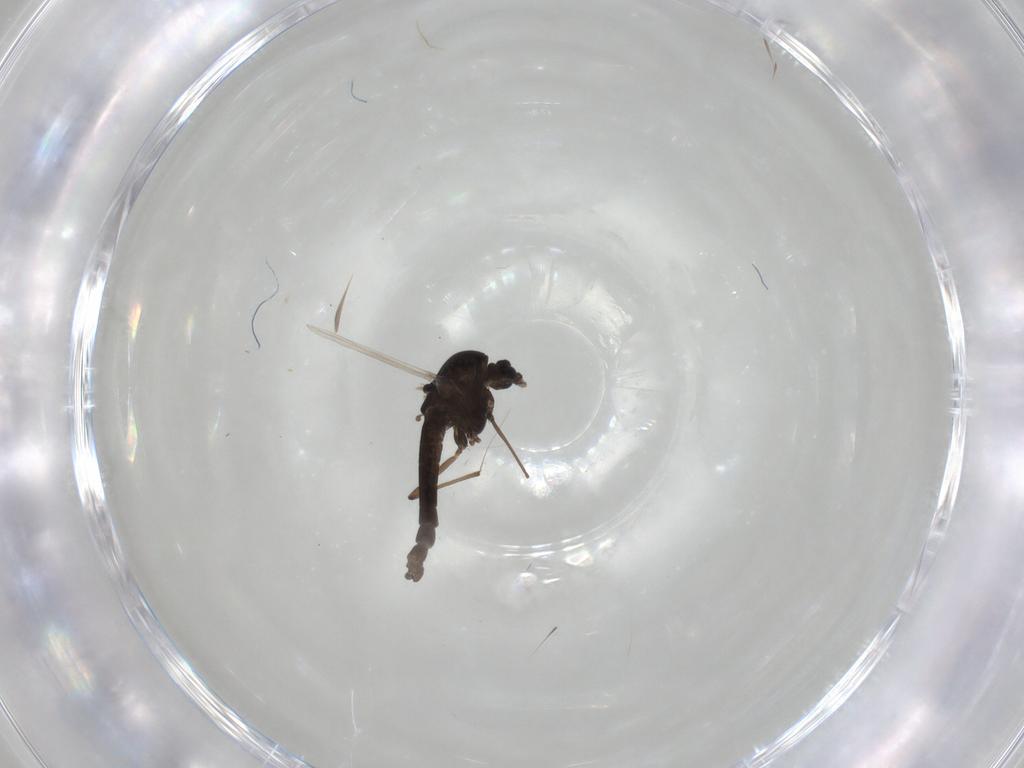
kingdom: Animalia
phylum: Arthropoda
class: Insecta
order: Diptera
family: Chironomidae
